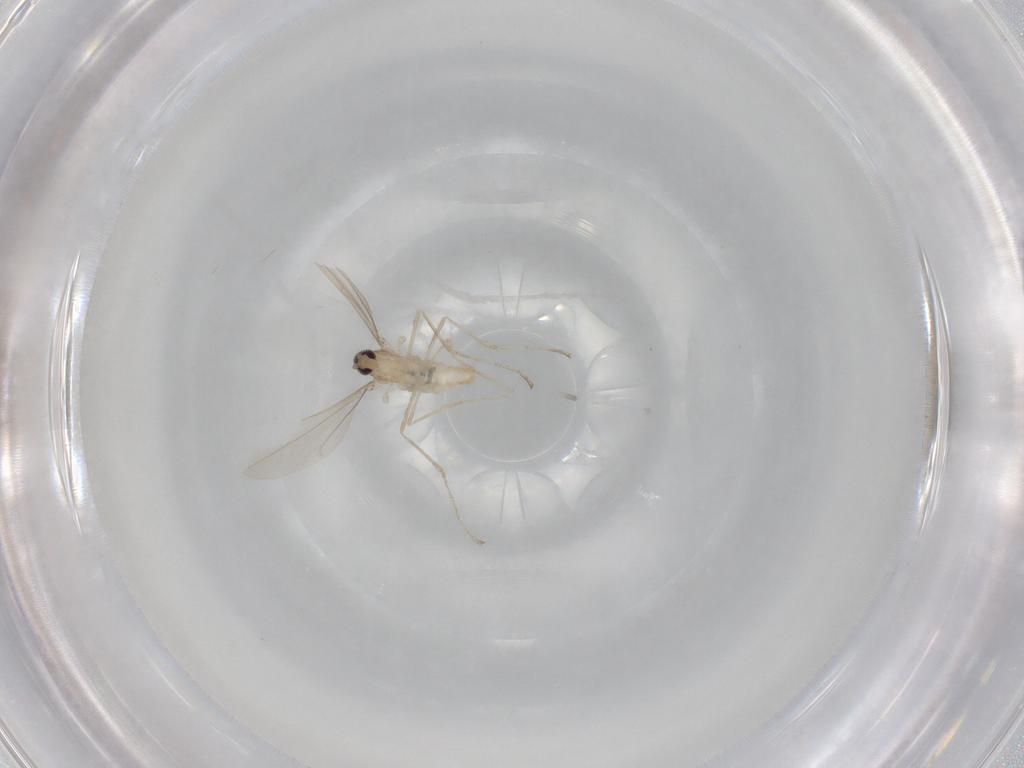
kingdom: Animalia
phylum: Arthropoda
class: Insecta
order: Diptera
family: Cecidomyiidae
